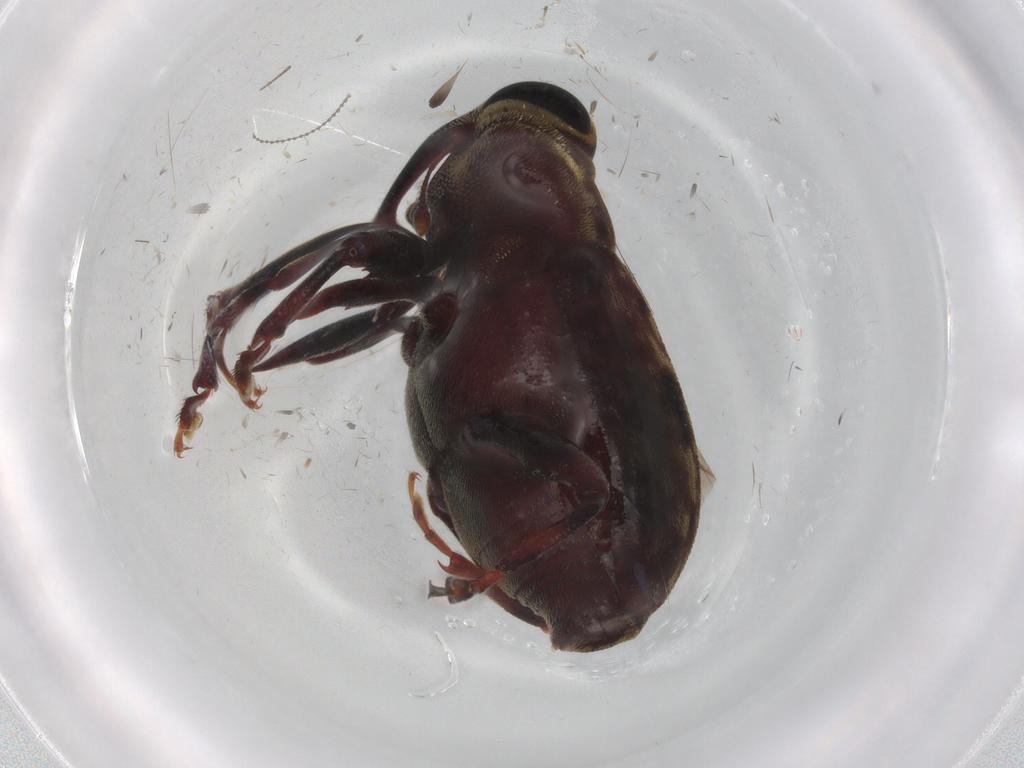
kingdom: Animalia
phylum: Arthropoda
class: Insecta
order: Coleoptera
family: Curculionidae
